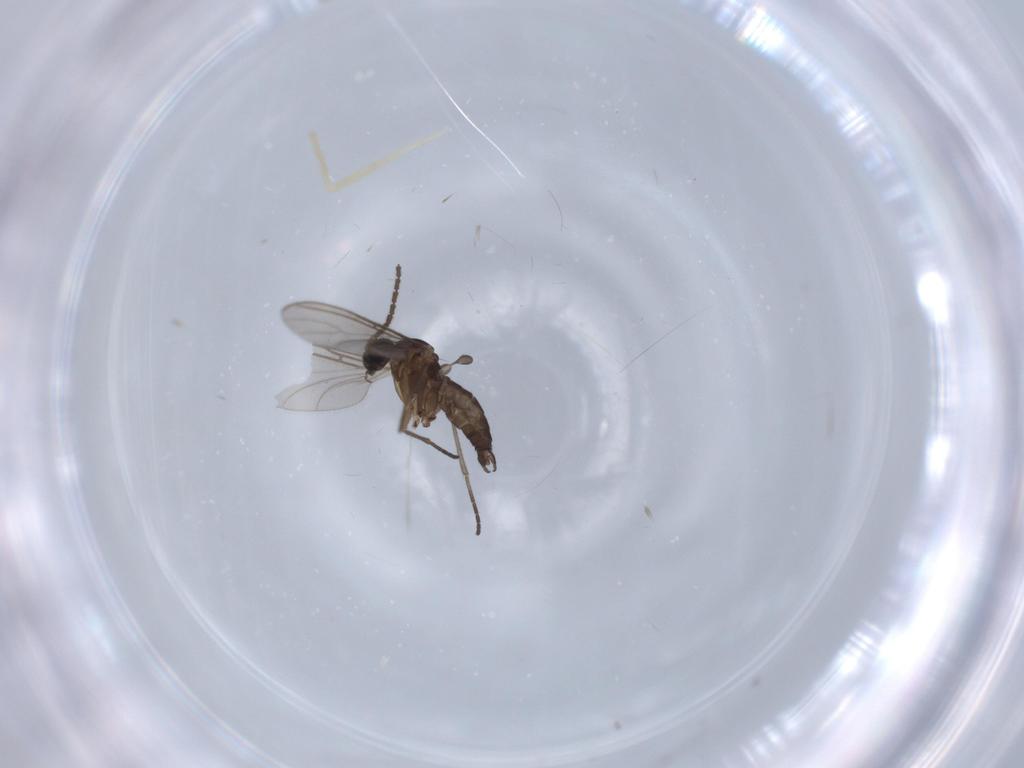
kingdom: Animalia
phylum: Arthropoda
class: Insecta
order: Diptera
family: Sciaridae
